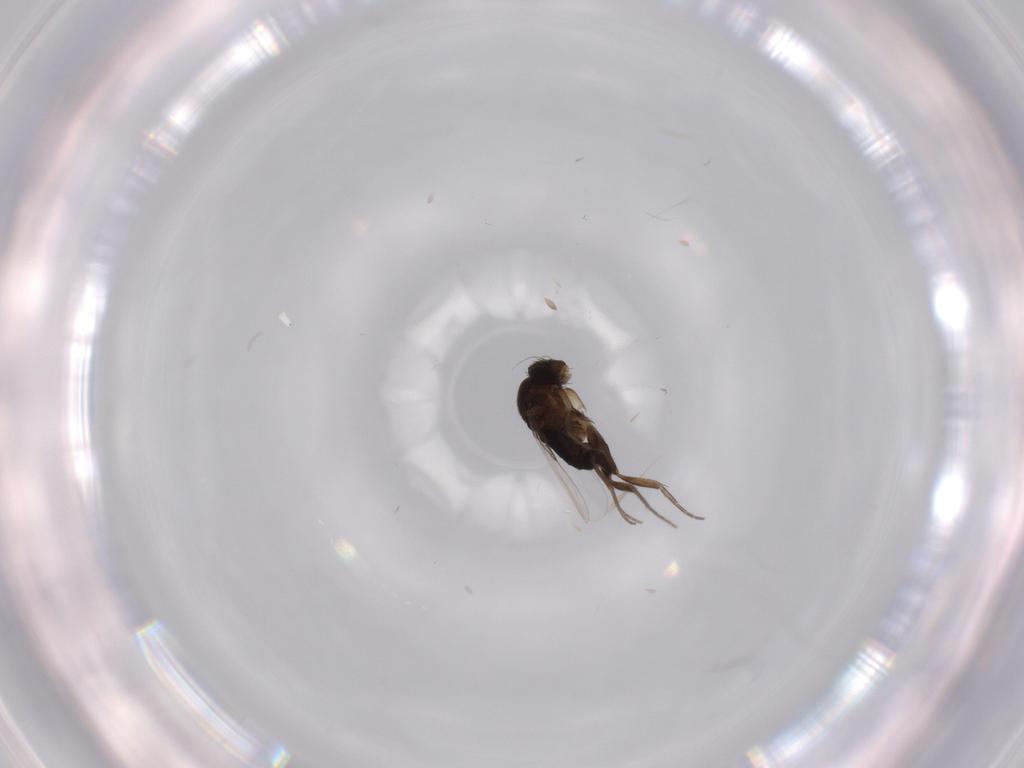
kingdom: Animalia
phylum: Arthropoda
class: Insecta
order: Diptera
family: Phoridae
